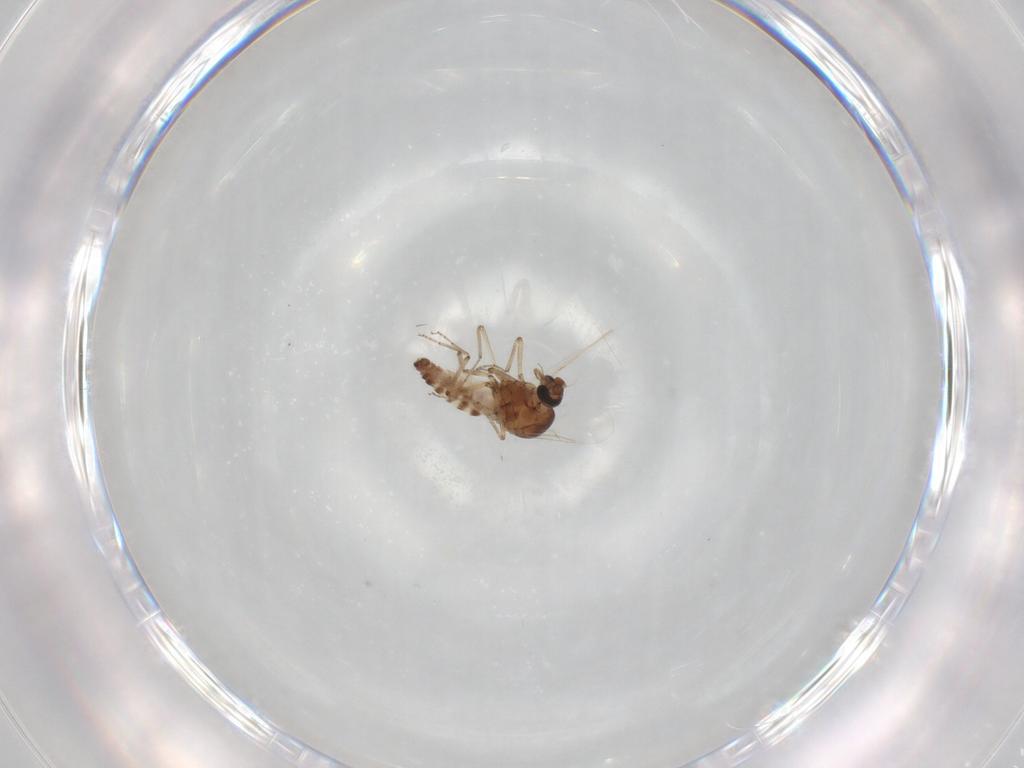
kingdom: Animalia
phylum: Arthropoda
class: Insecta
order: Diptera
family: Ceratopogonidae
